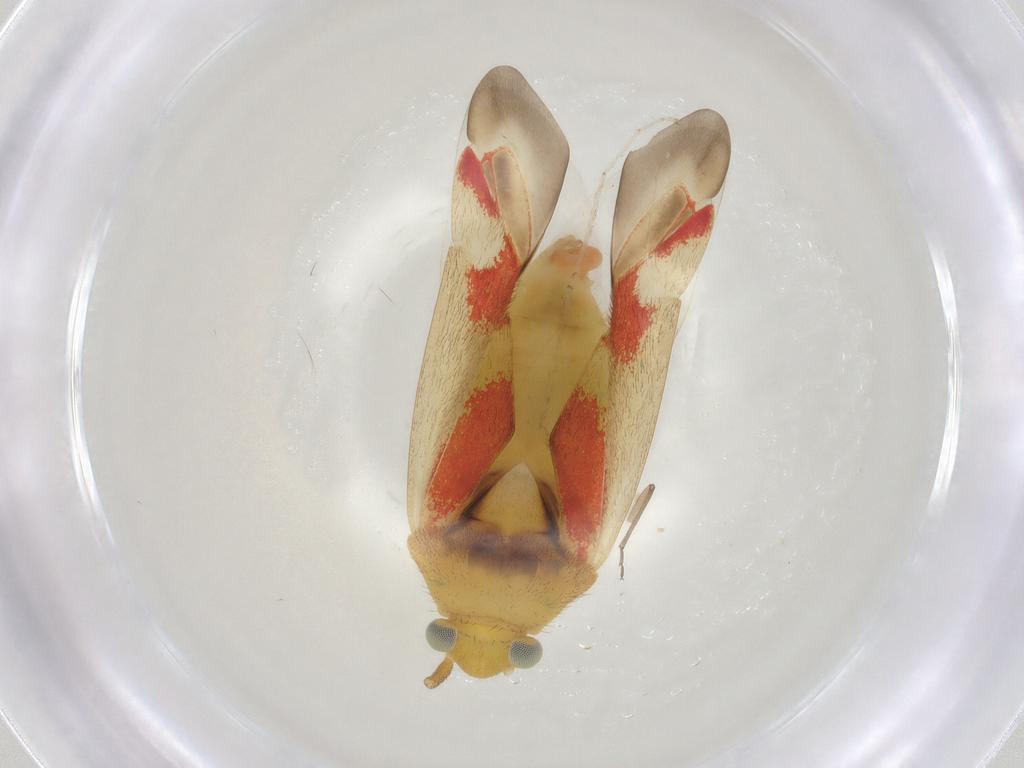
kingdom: Animalia
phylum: Arthropoda
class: Insecta
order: Hemiptera
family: Miridae
